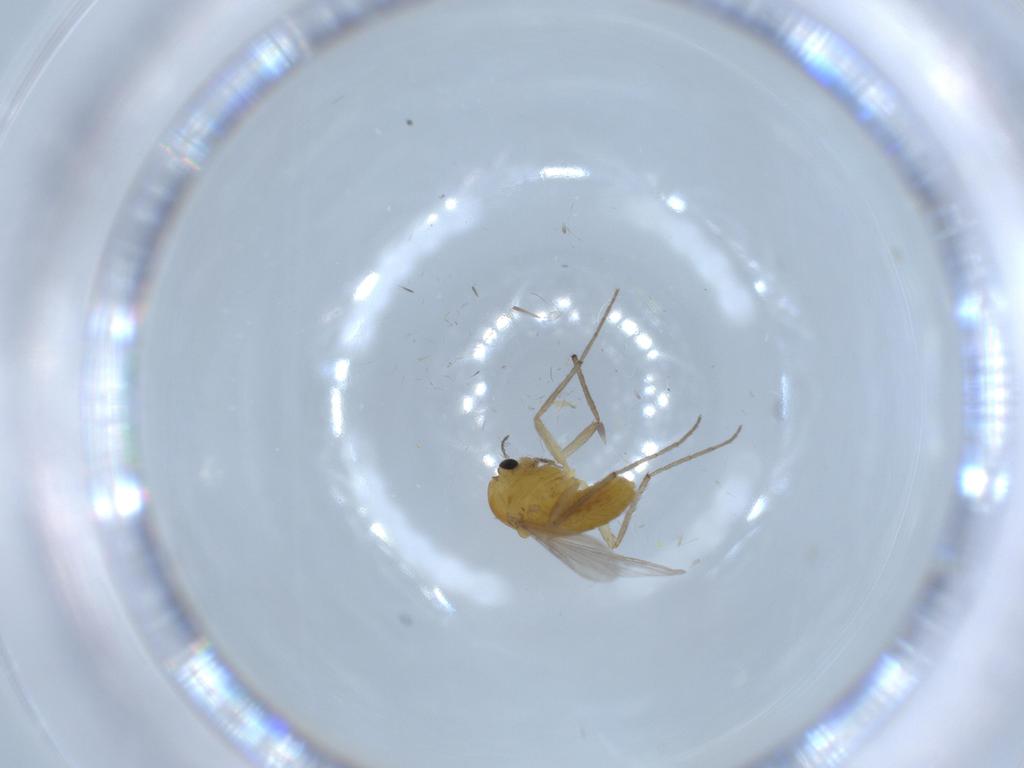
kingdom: Animalia
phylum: Arthropoda
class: Insecta
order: Diptera
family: Chironomidae
